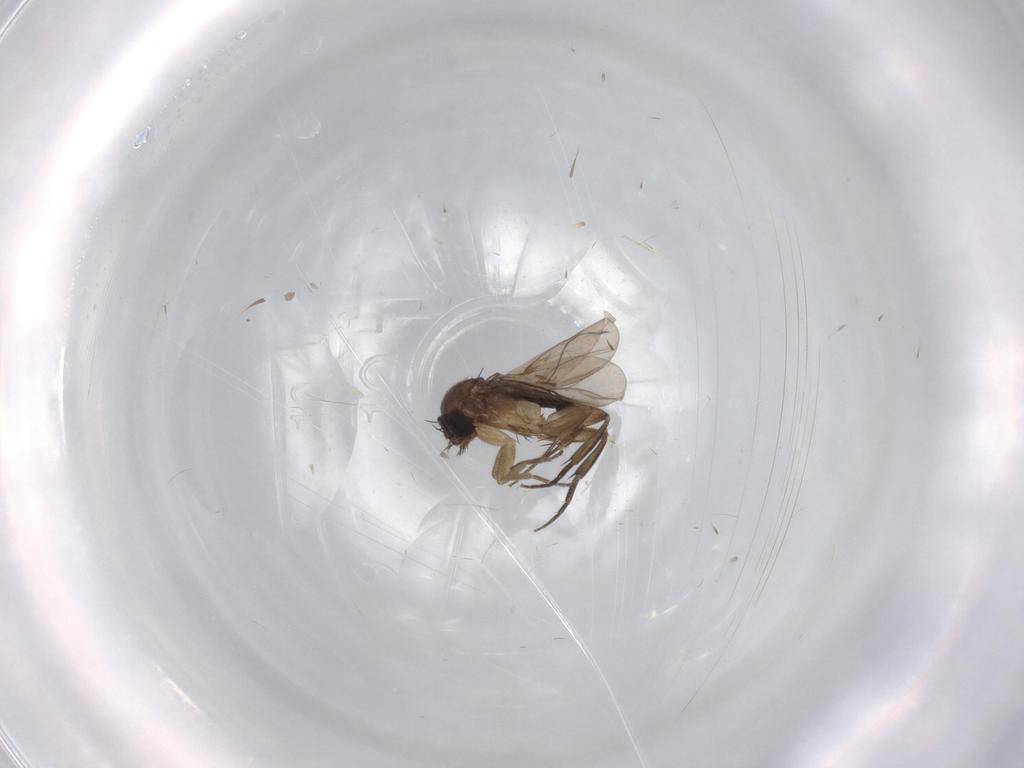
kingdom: Animalia
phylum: Arthropoda
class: Insecta
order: Diptera
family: Phoridae
